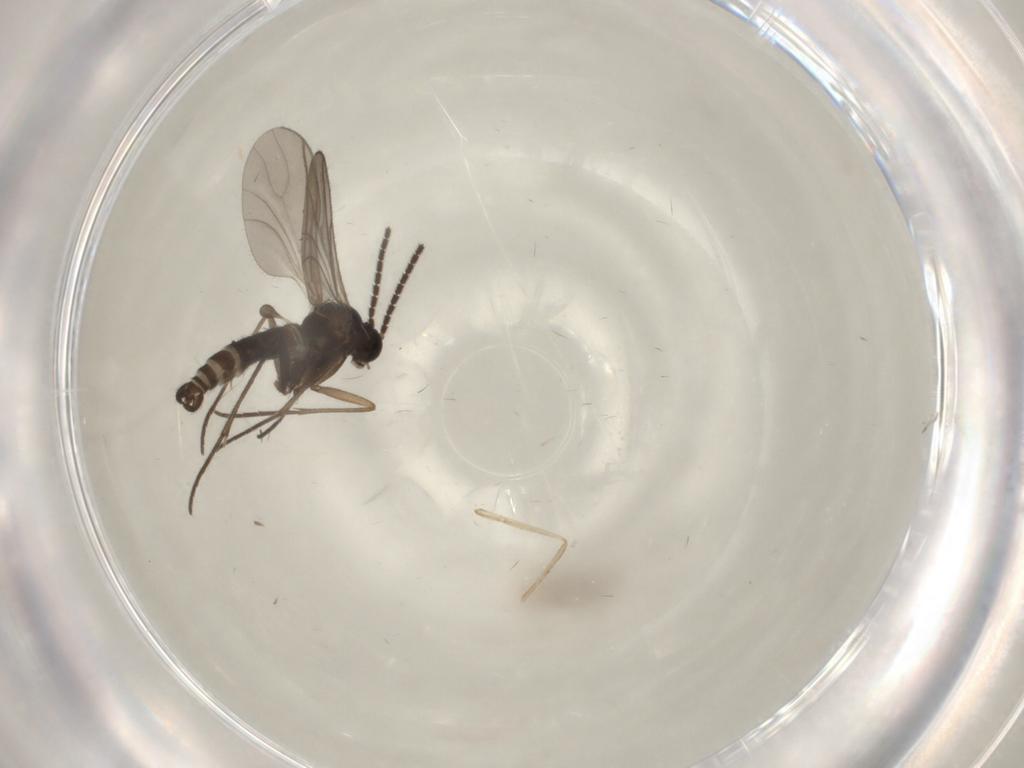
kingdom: Animalia
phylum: Arthropoda
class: Insecta
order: Diptera
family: Sciaridae
